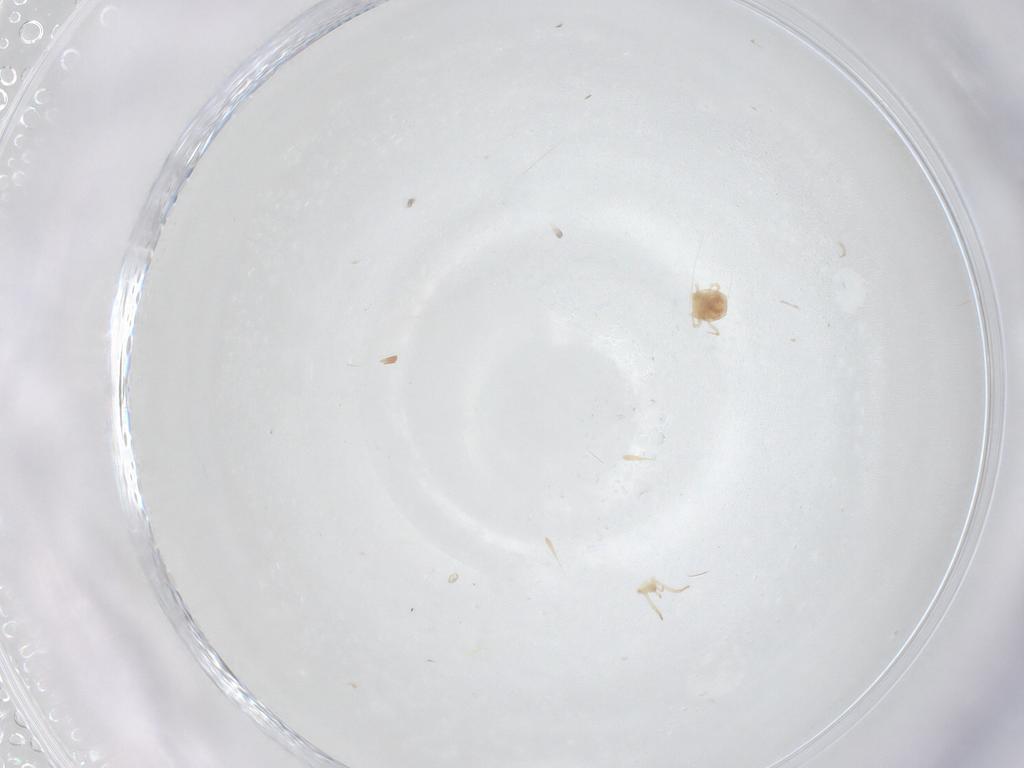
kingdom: Animalia
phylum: Arthropoda
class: Arachnida
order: Mesostigmata
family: Phytoseiidae
